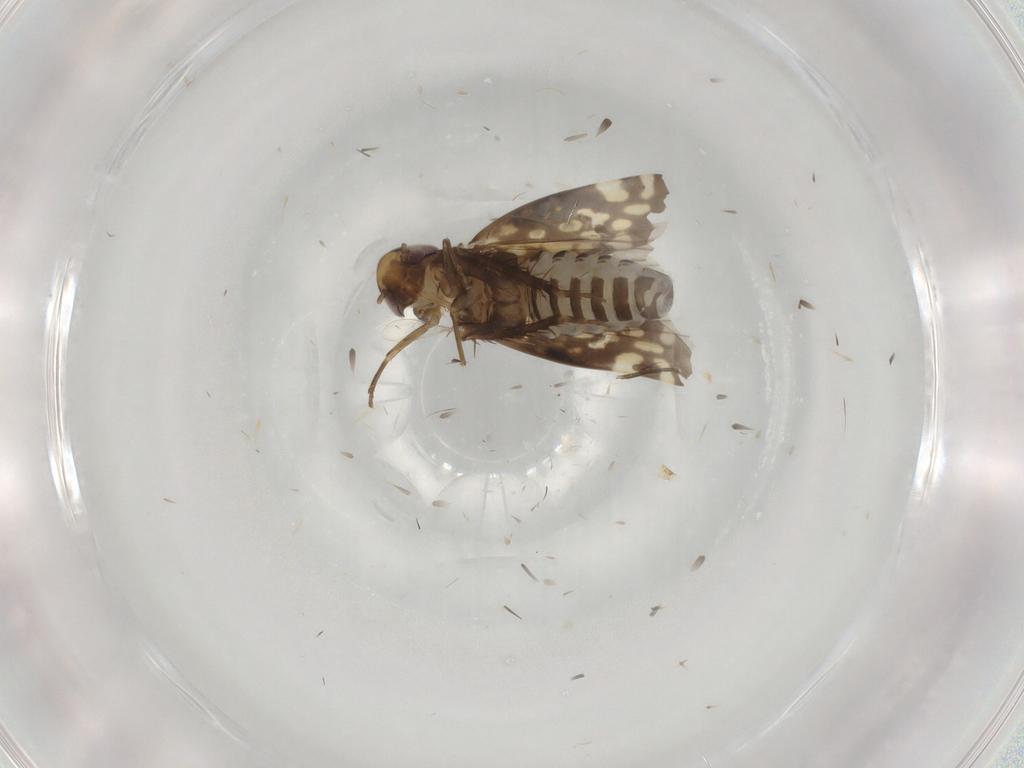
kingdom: Animalia
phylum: Arthropoda
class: Insecta
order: Hemiptera
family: Cicadellidae
